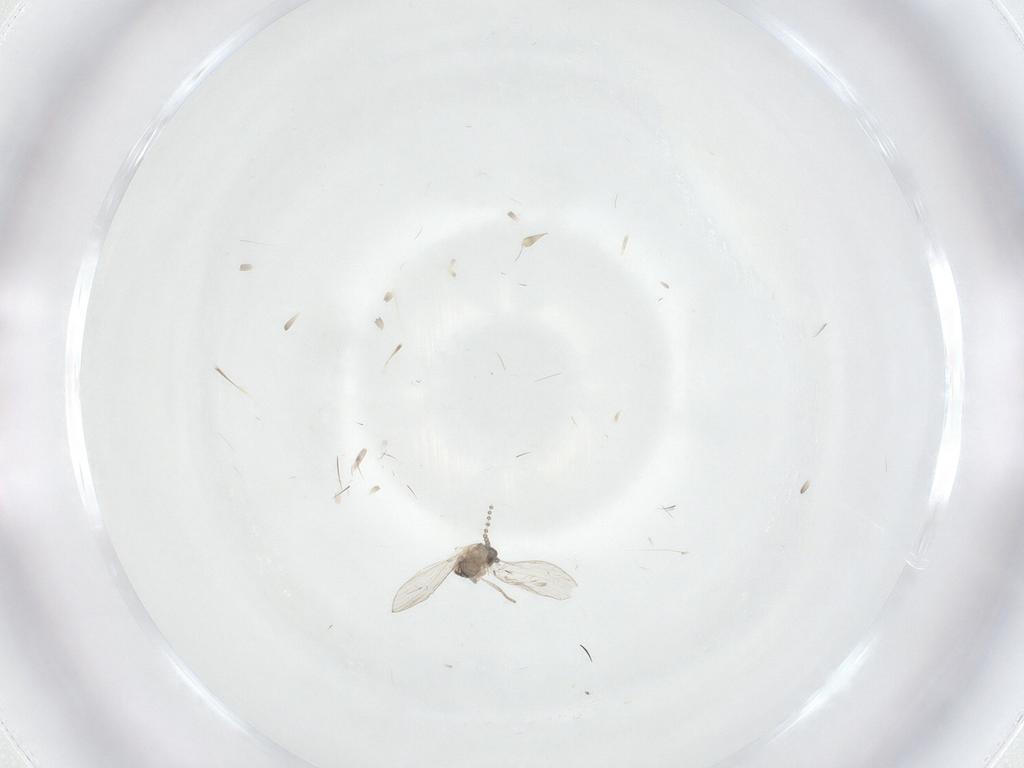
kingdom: Animalia
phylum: Arthropoda
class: Insecta
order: Diptera
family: Psychodidae
